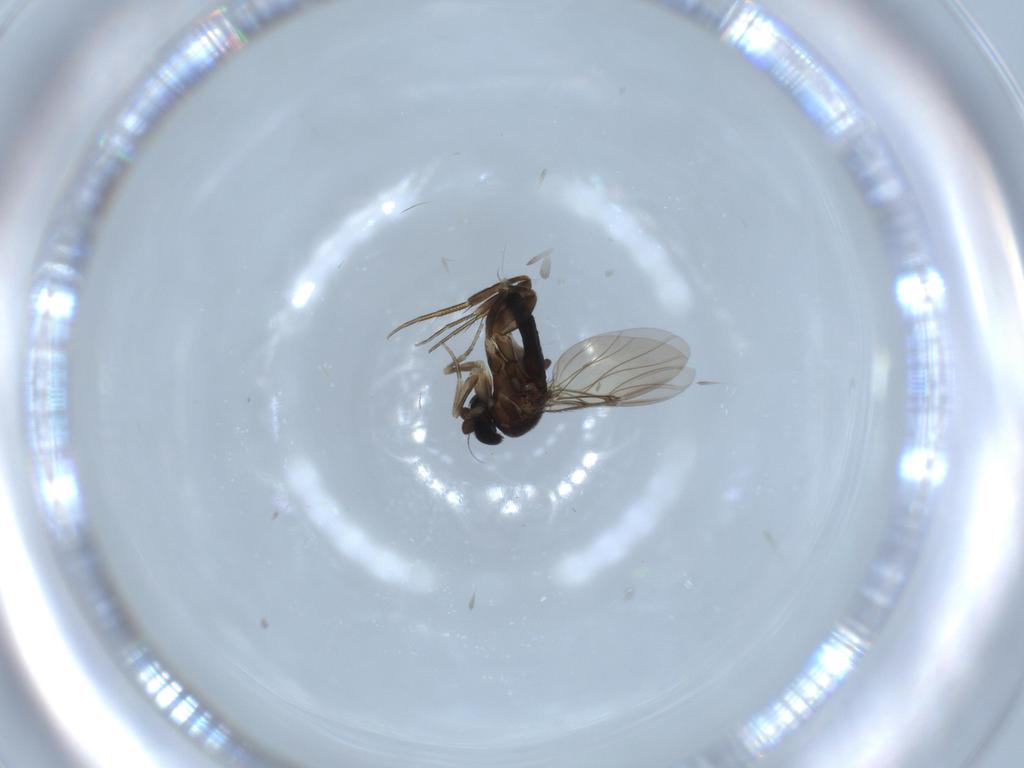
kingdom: Animalia
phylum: Arthropoda
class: Insecta
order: Diptera
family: Phoridae
